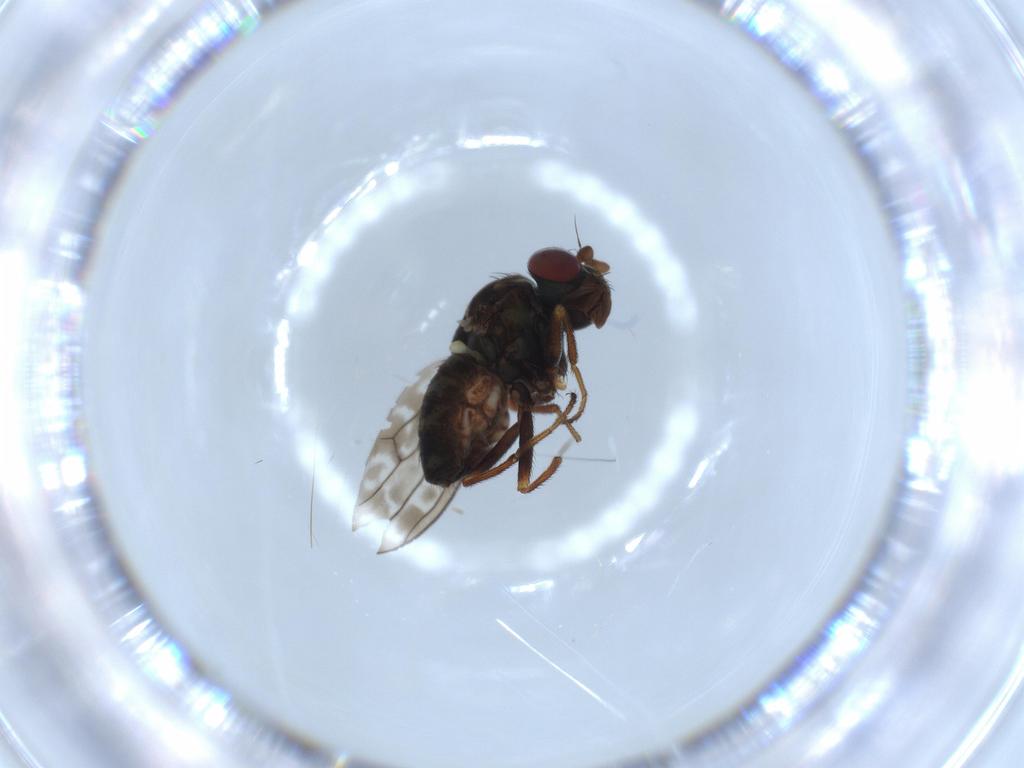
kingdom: Animalia
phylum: Arthropoda
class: Insecta
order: Diptera
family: Ephydridae
